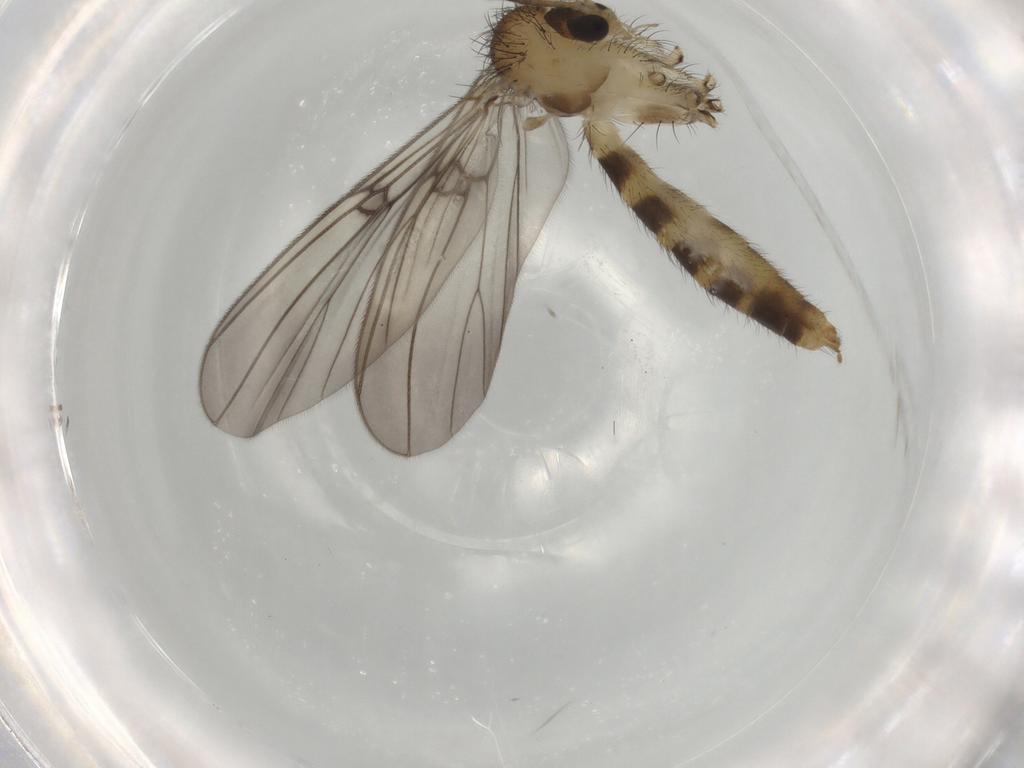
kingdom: Animalia
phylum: Arthropoda
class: Insecta
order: Diptera
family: Mycetophilidae
